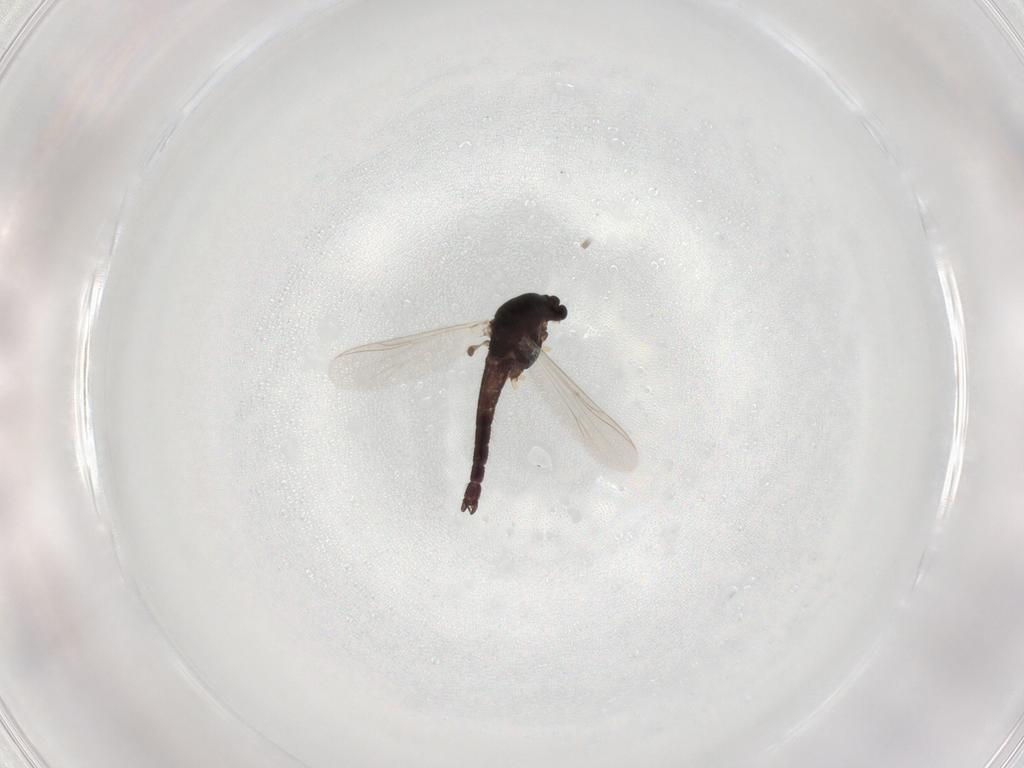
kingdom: Animalia
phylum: Arthropoda
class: Insecta
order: Diptera
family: Chironomidae
